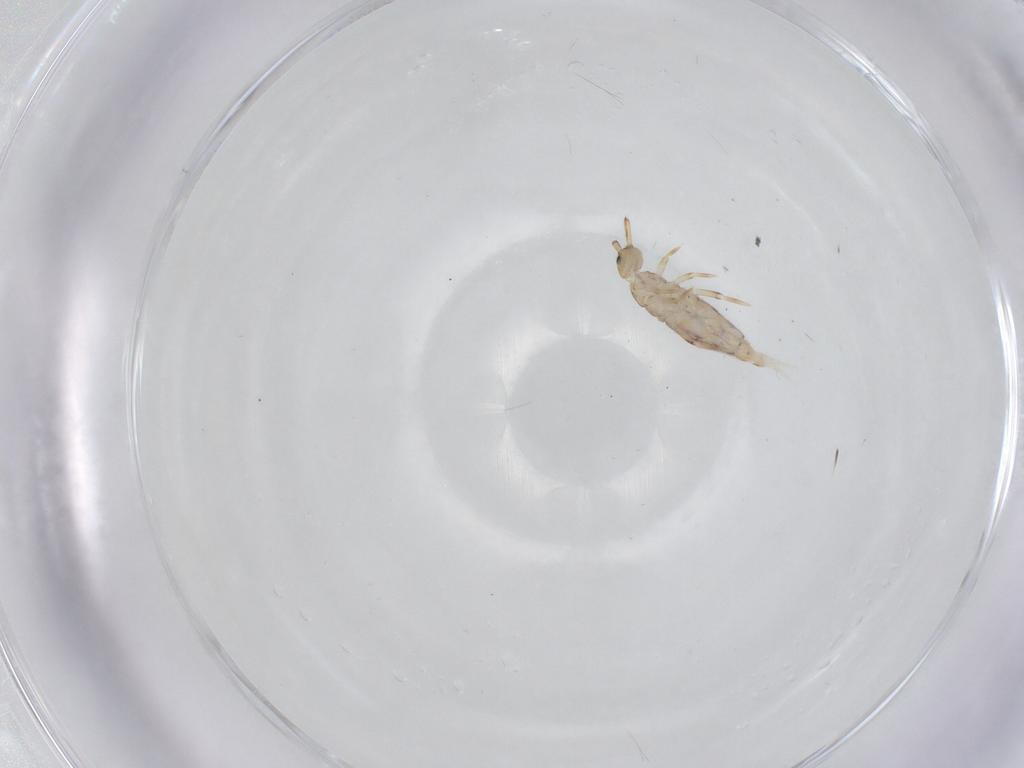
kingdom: Animalia
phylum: Arthropoda
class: Collembola
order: Entomobryomorpha
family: Entomobryidae
